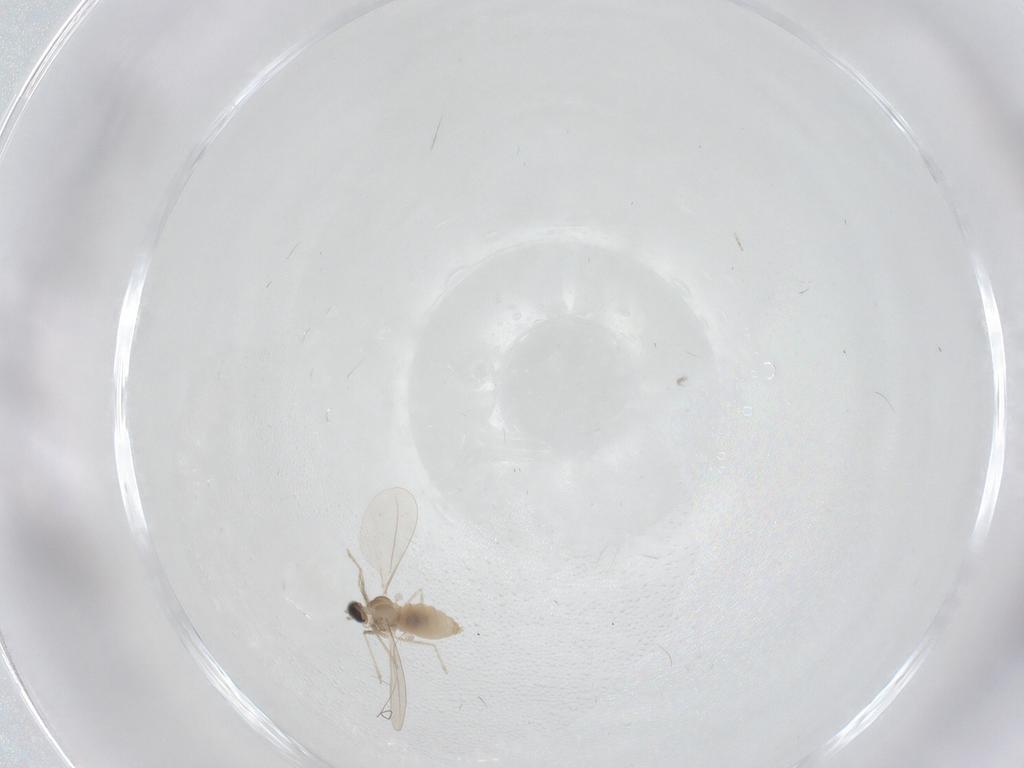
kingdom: Animalia
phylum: Arthropoda
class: Insecta
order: Diptera
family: Phoridae
